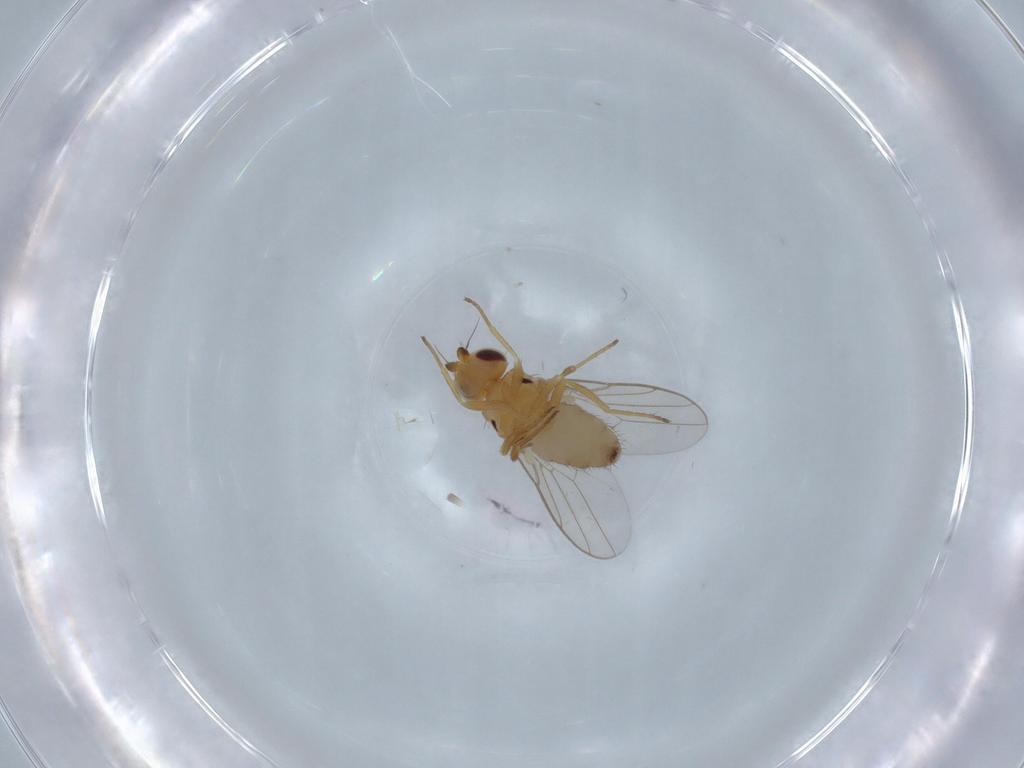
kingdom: Animalia
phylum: Arthropoda
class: Insecta
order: Diptera
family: Chloropidae
